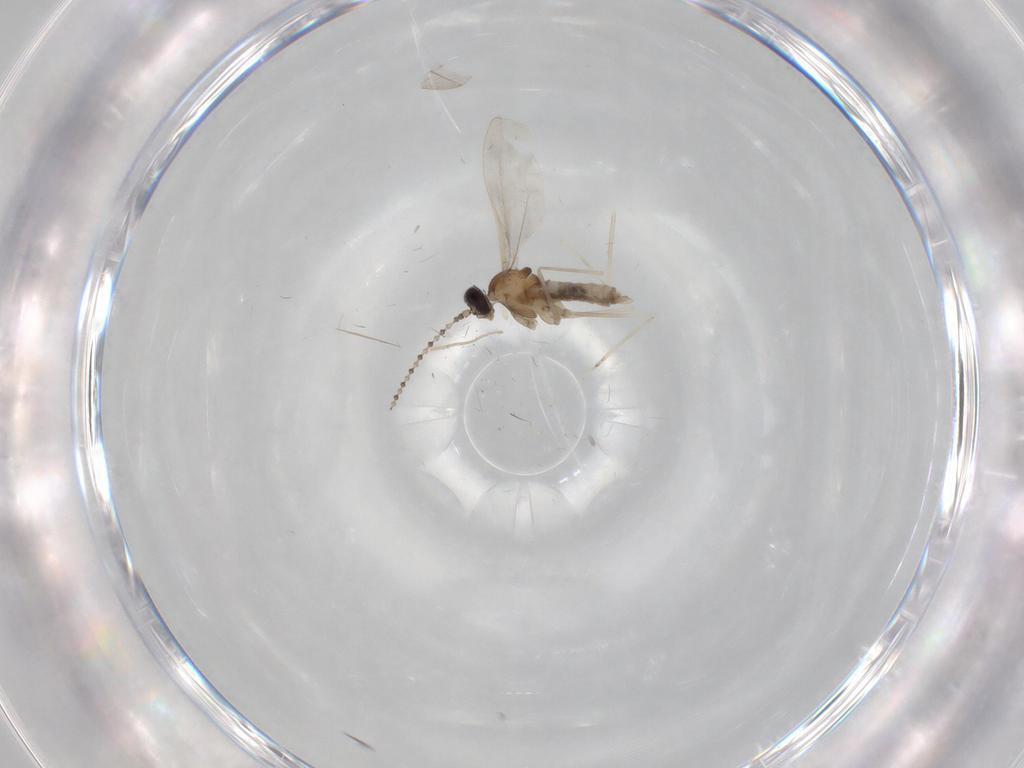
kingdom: Animalia
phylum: Arthropoda
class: Insecta
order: Diptera
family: Cecidomyiidae
